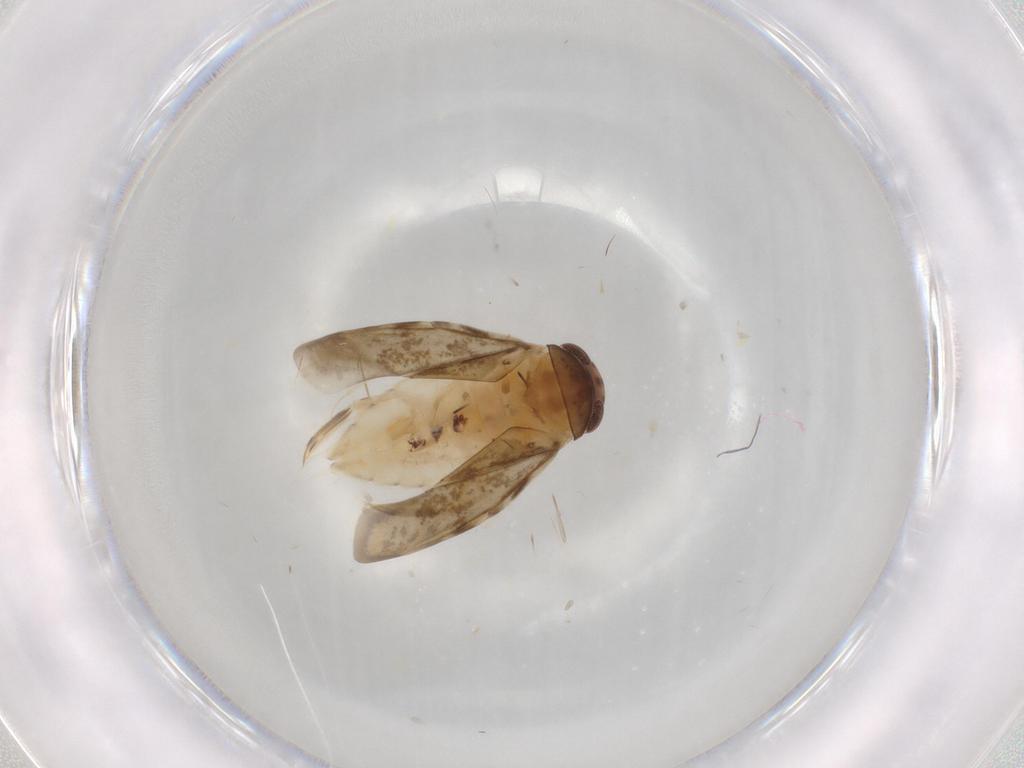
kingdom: Animalia
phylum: Arthropoda
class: Insecta
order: Hemiptera
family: Corixidae
